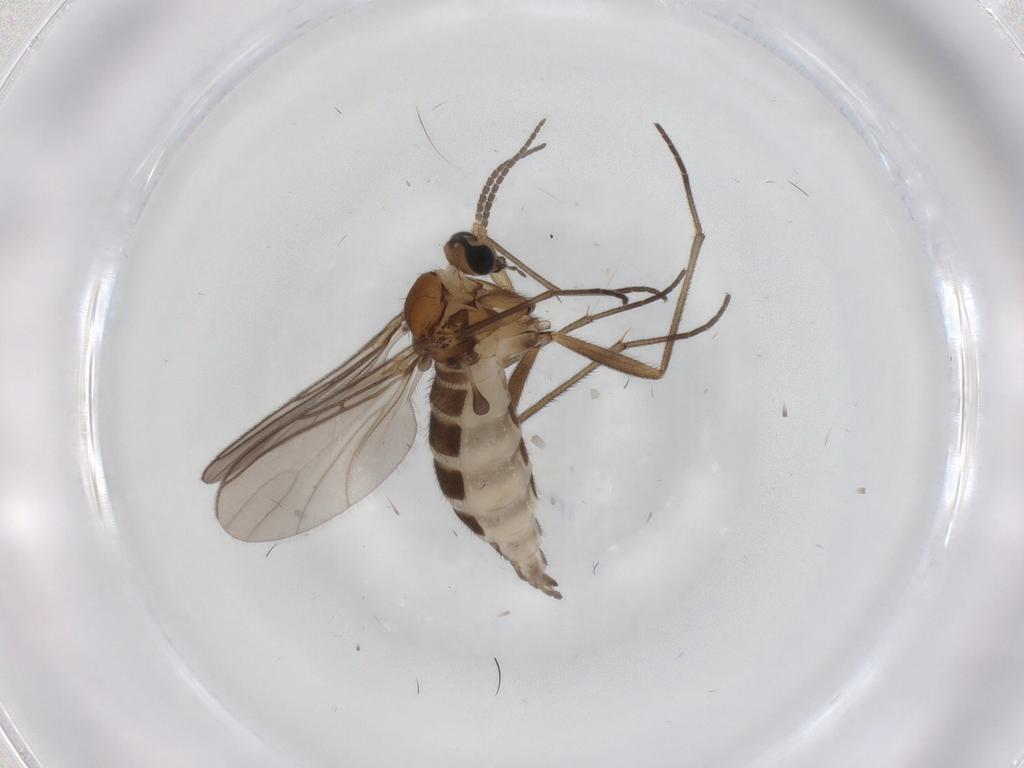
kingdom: Animalia
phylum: Arthropoda
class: Insecta
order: Diptera
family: Sciaridae
